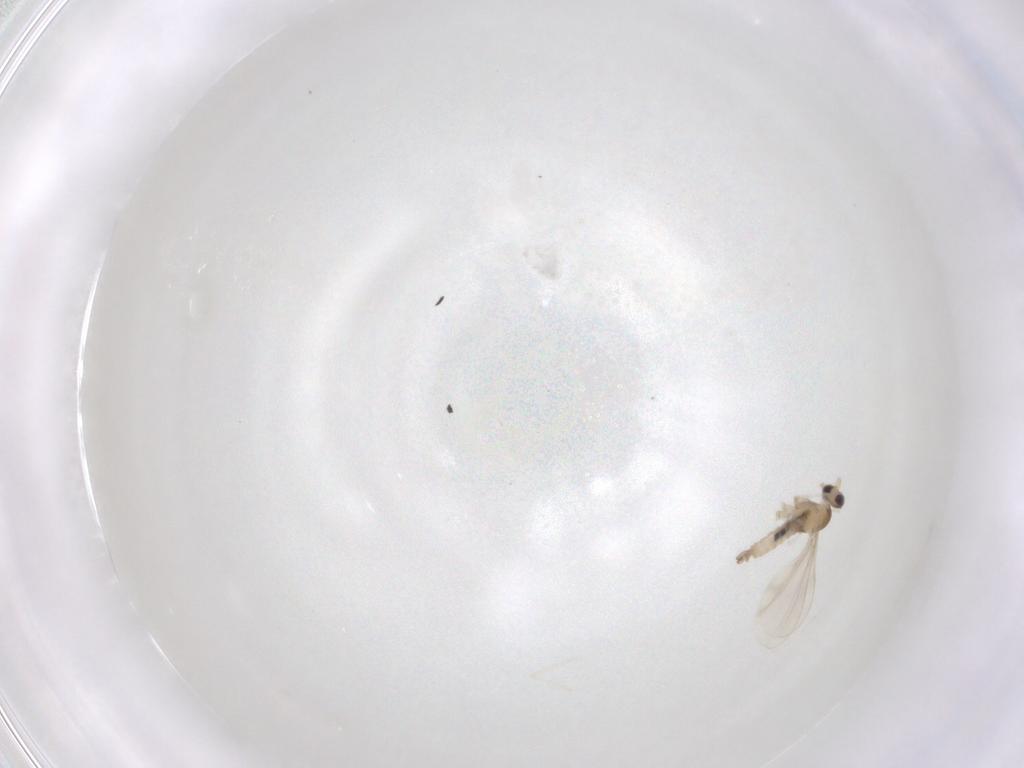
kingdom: Animalia
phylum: Arthropoda
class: Insecta
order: Diptera
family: Cecidomyiidae
